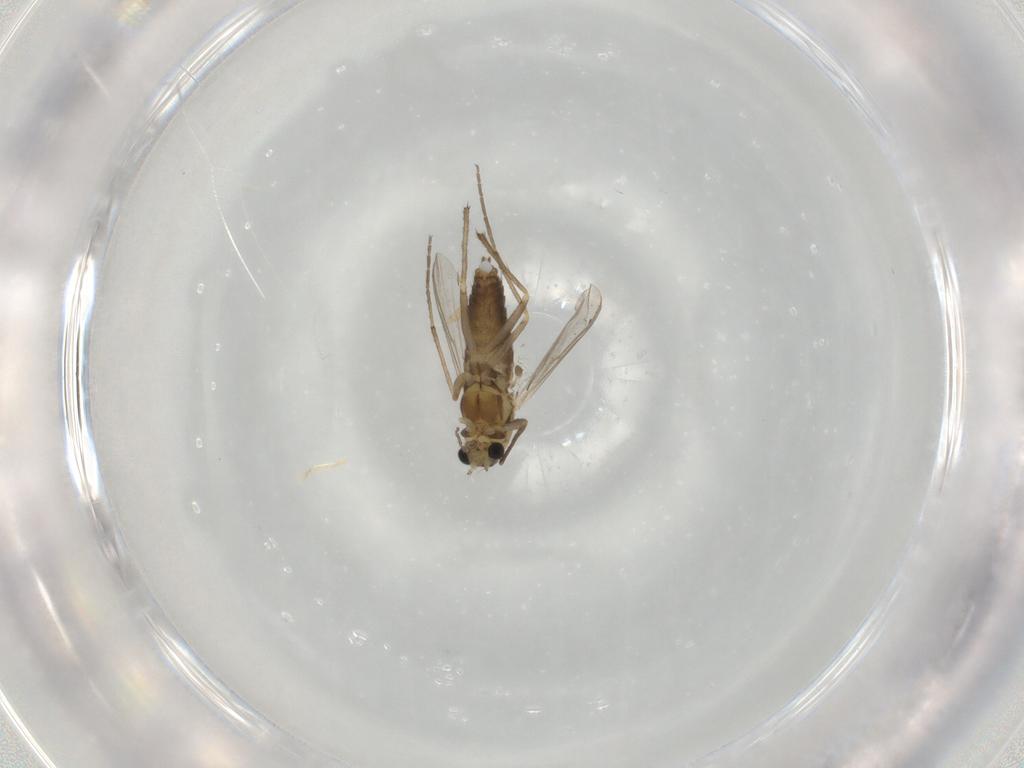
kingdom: Animalia
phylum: Arthropoda
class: Insecta
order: Diptera
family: Chironomidae
